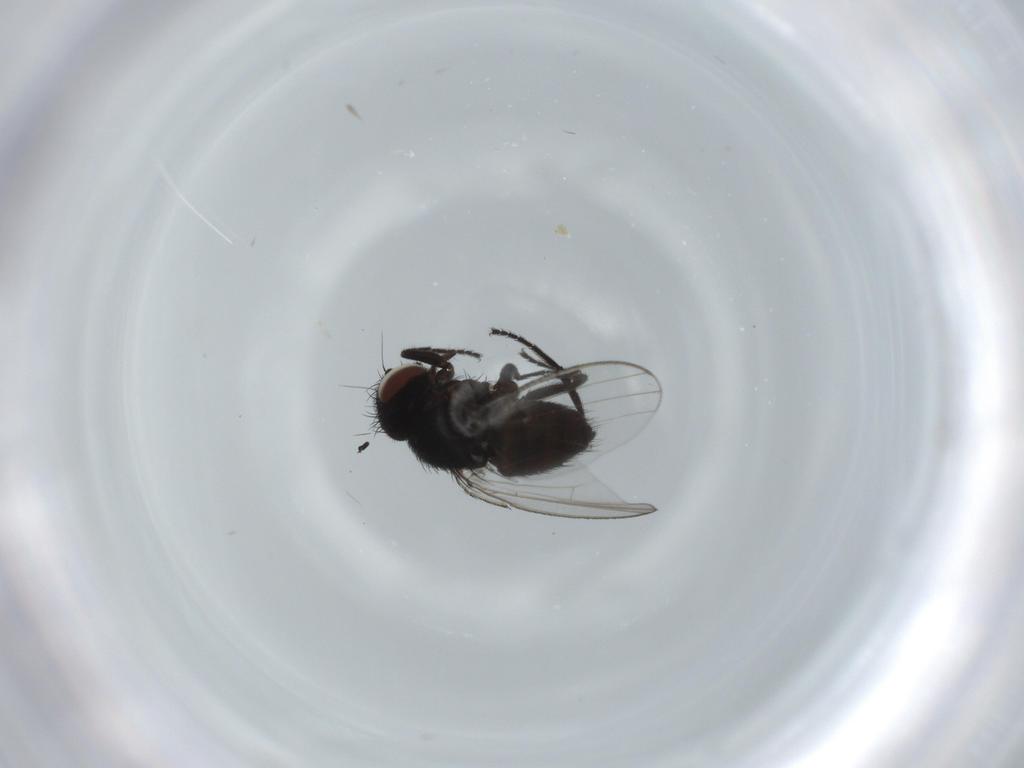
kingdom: Animalia
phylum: Arthropoda
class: Insecta
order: Diptera
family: Milichiidae
